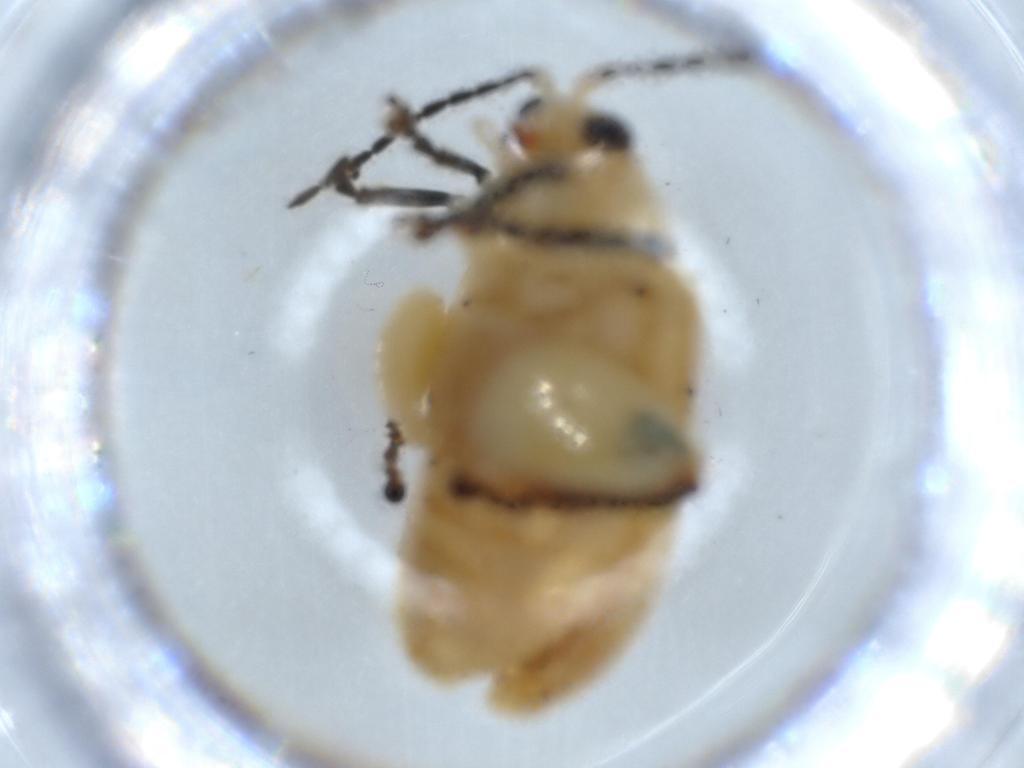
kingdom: Animalia
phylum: Arthropoda
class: Insecta
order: Coleoptera
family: Chrysomelidae
